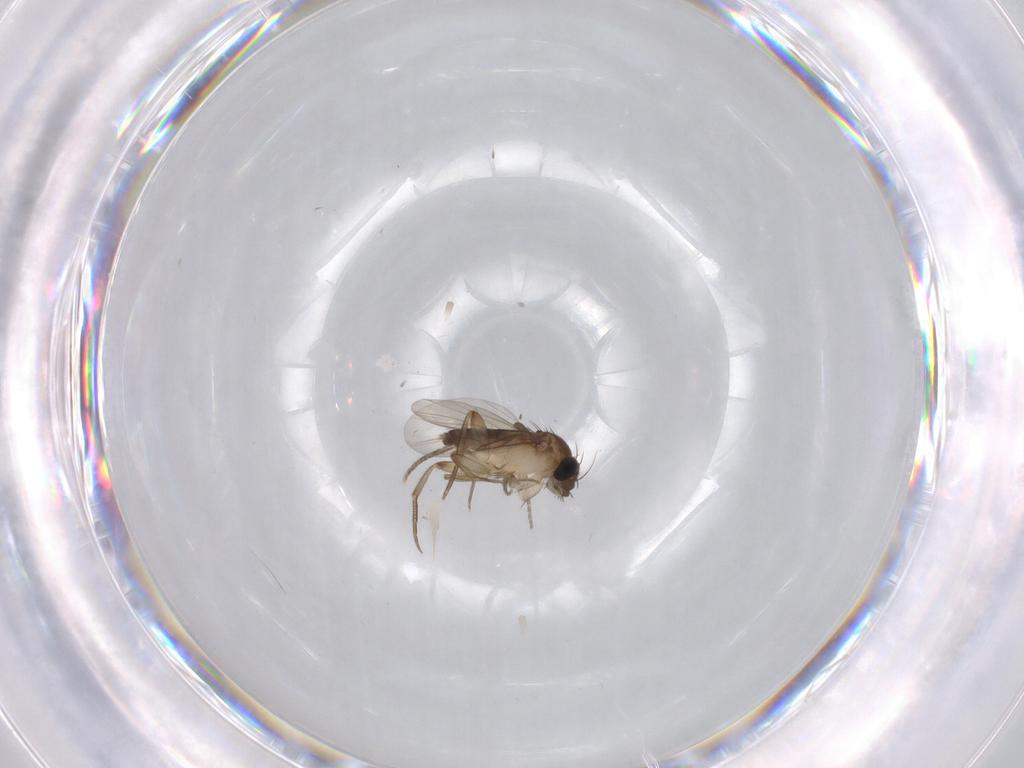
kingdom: Animalia
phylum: Arthropoda
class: Insecta
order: Diptera
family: Phoridae
